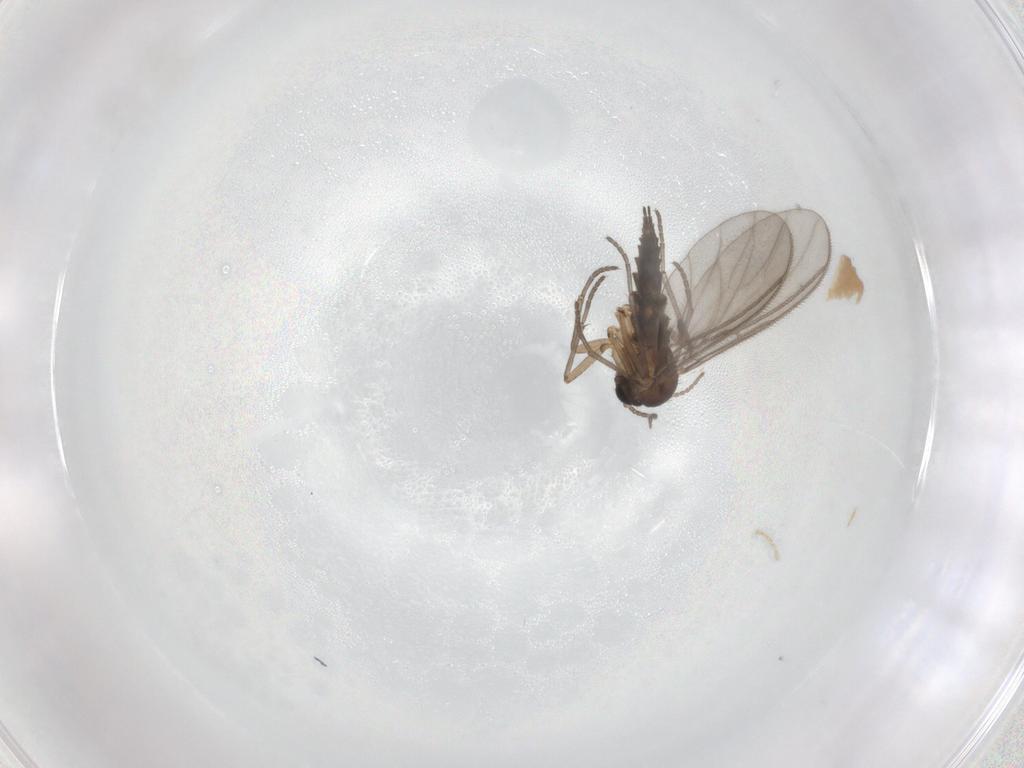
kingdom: Animalia
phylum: Arthropoda
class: Insecta
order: Diptera
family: Sciaridae
